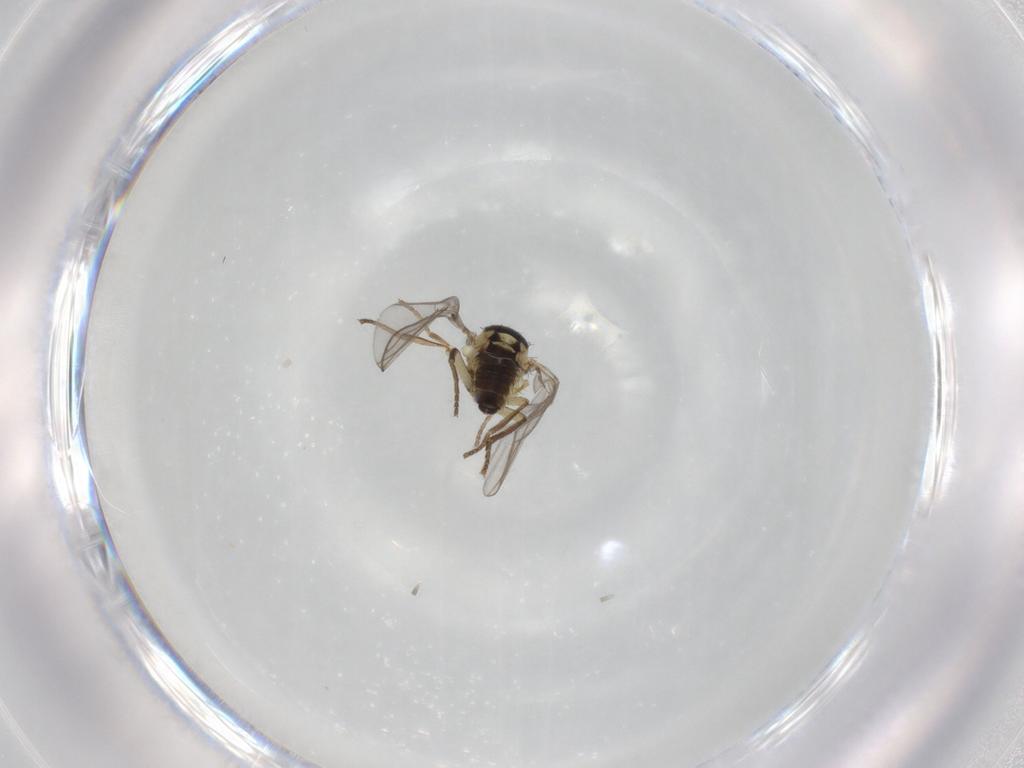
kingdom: Animalia
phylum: Arthropoda
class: Insecta
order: Diptera
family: Agromyzidae
